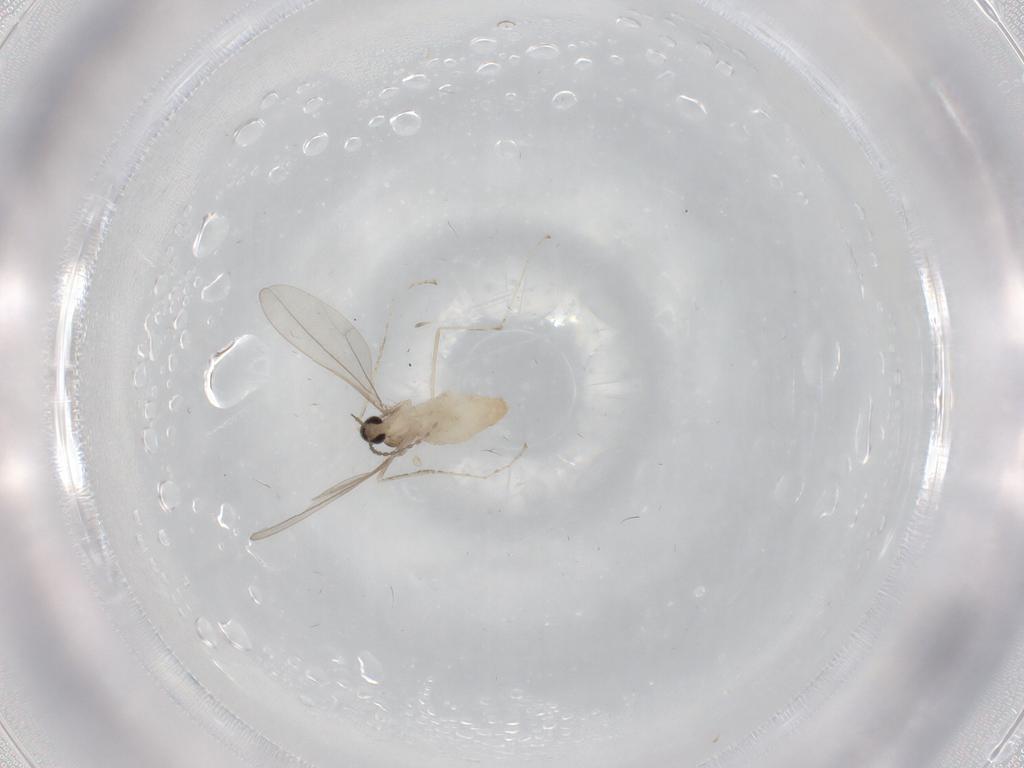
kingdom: Animalia
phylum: Arthropoda
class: Insecta
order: Diptera
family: Cecidomyiidae
